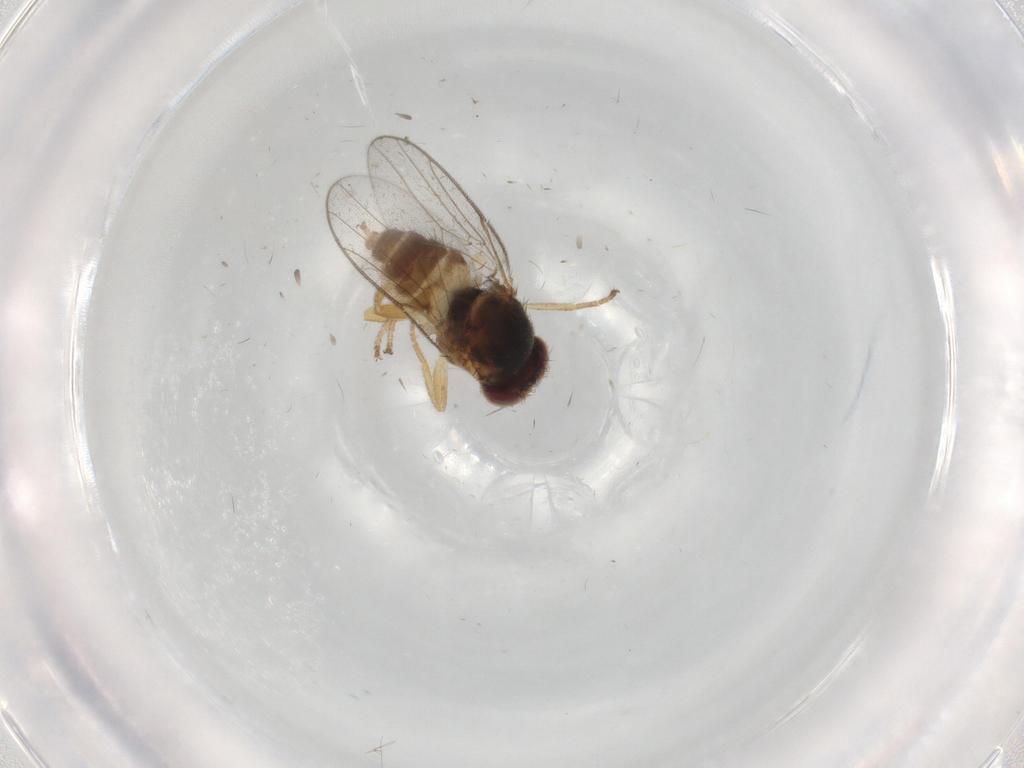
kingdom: Animalia
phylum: Arthropoda
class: Insecta
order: Diptera
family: Chloropidae
